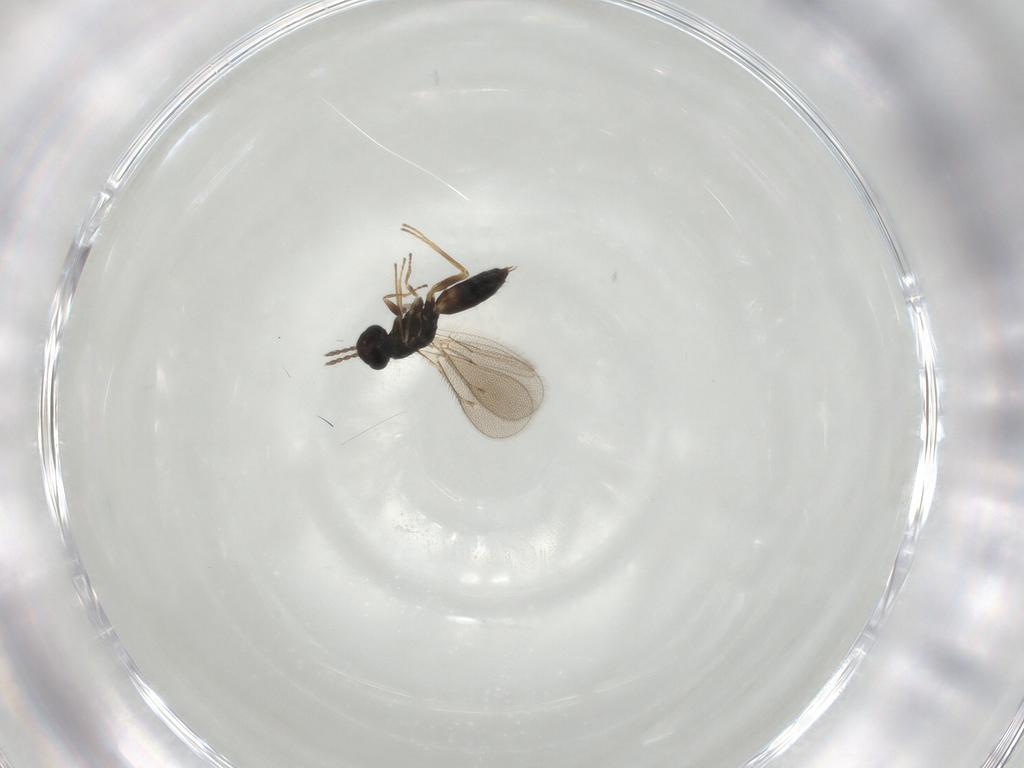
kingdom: Animalia
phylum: Arthropoda
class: Insecta
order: Hymenoptera
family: Eulophidae
